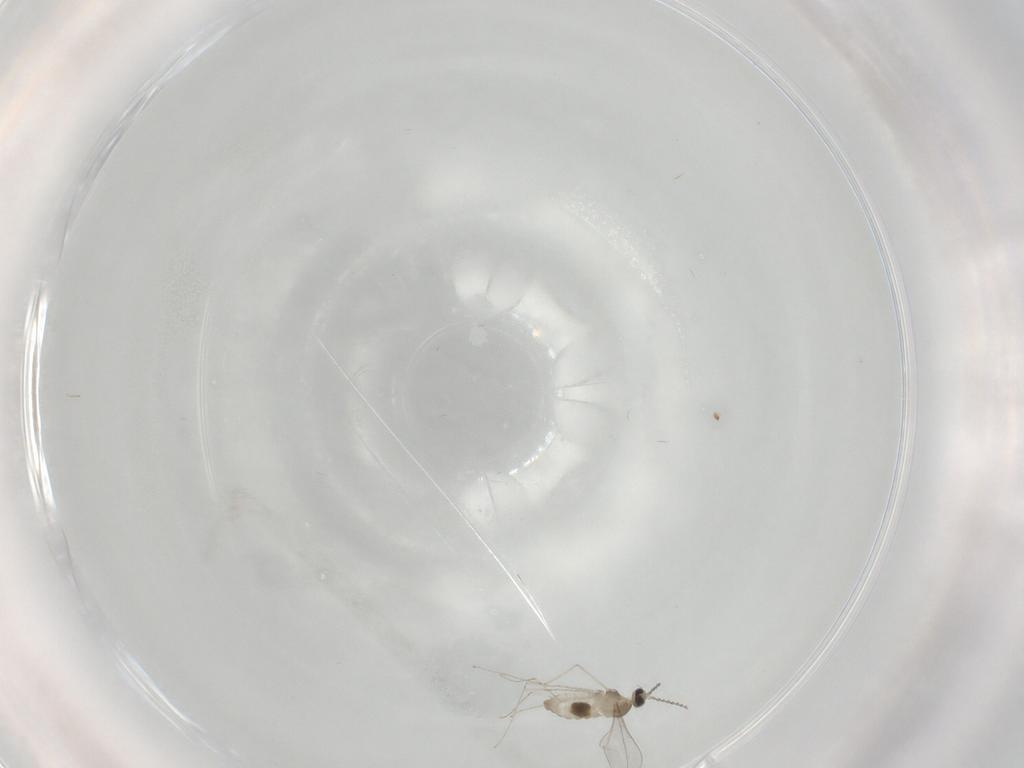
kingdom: Animalia
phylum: Arthropoda
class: Insecta
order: Diptera
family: Cecidomyiidae
